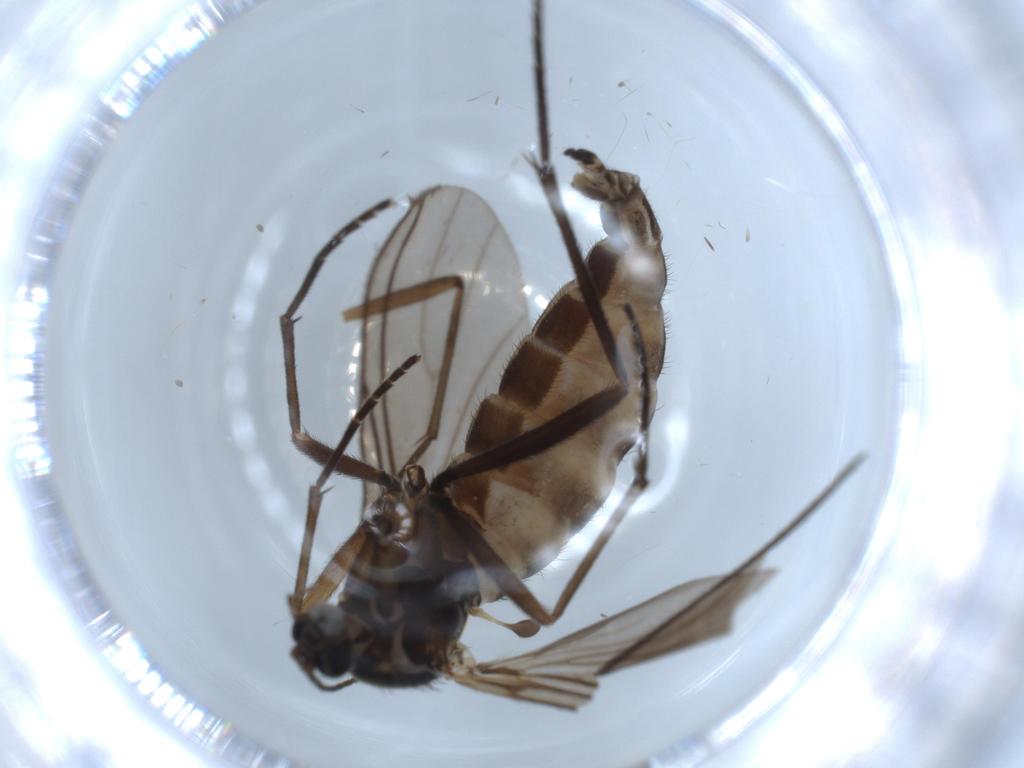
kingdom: Animalia
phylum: Arthropoda
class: Insecta
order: Diptera
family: Sciaridae
